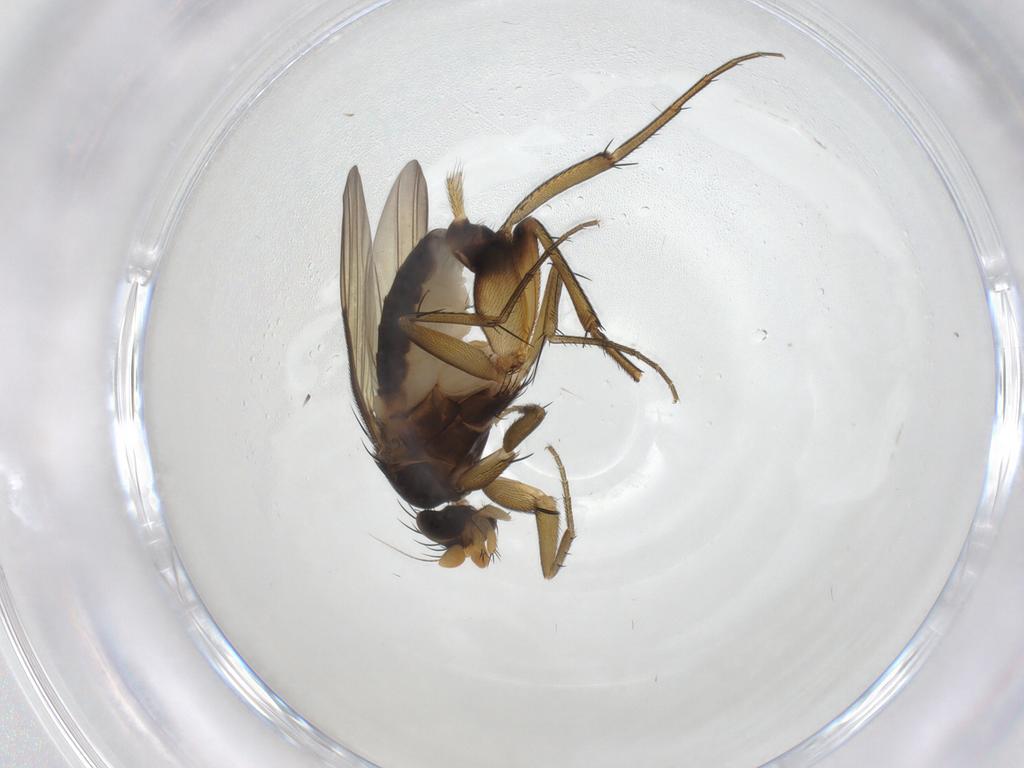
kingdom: Animalia
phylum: Arthropoda
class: Insecta
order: Diptera
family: Phoridae
